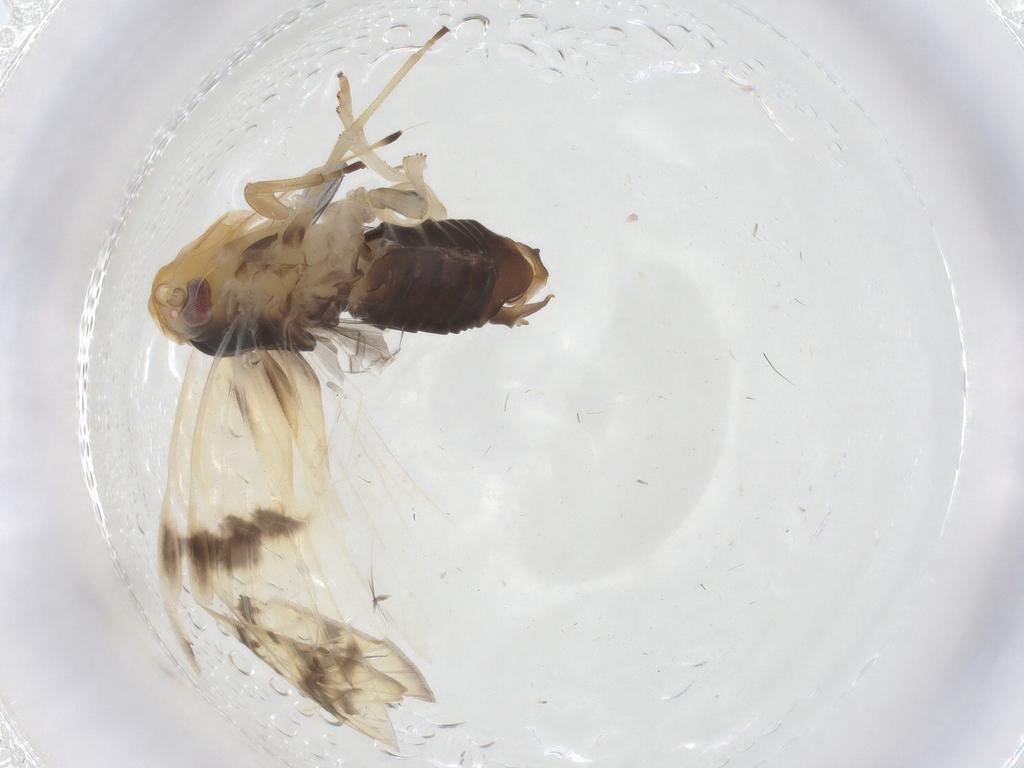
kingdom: Animalia
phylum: Arthropoda
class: Insecta
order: Hemiptera
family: Cixiidae
